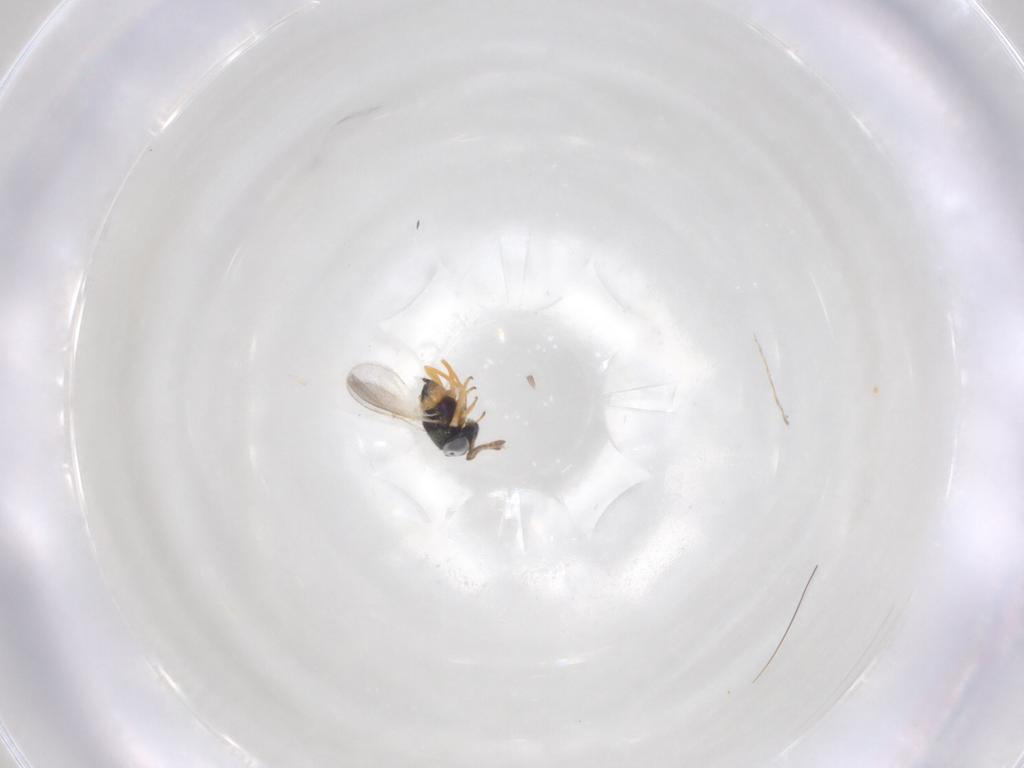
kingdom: Animalia
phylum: Arthropoda
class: Insecta
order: Hymenoptera
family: Encyrtidae
